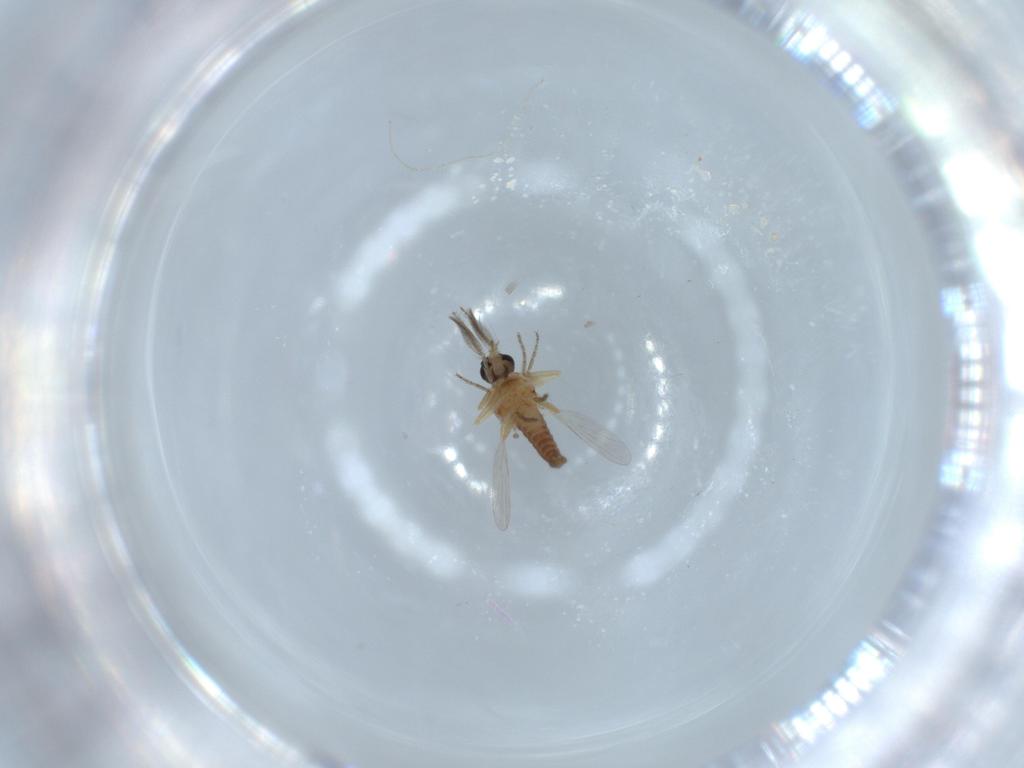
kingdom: Animalia
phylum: Arthropoda
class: Insecta
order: Diptera
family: Ceratopogonidae
